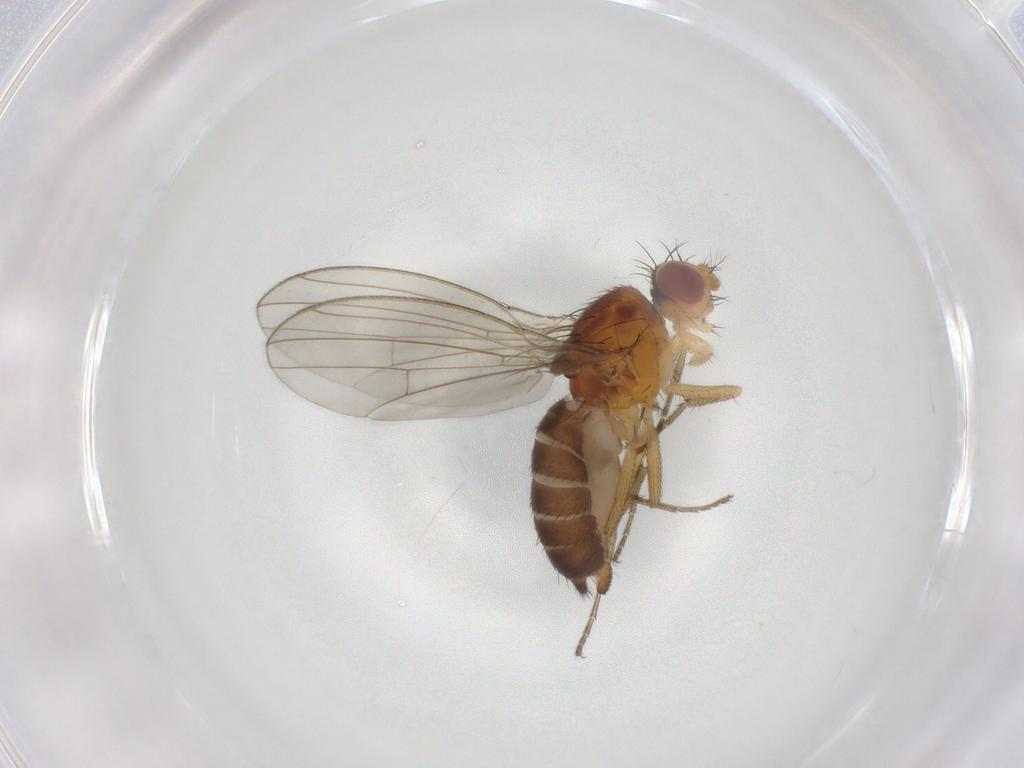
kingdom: Animalia
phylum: Arthropoda
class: Insecta
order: Diptera
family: Drosophilidae
